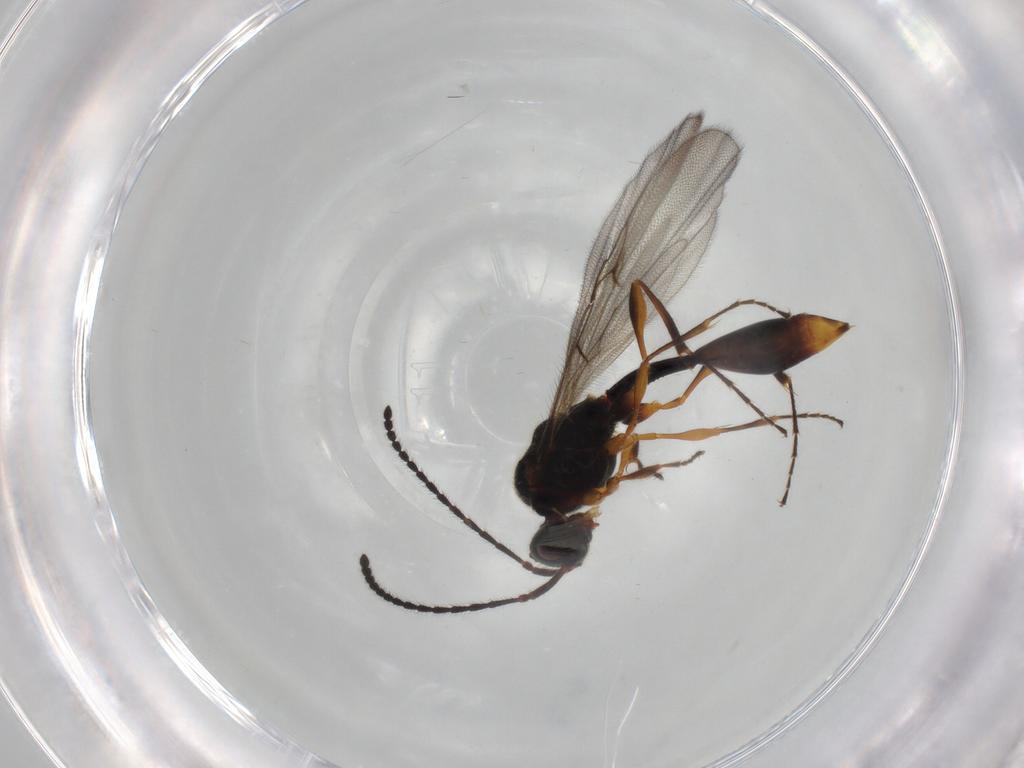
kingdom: Animalia
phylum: Arthropoda
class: Insecta
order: Hymenoptera
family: Diapriidae
